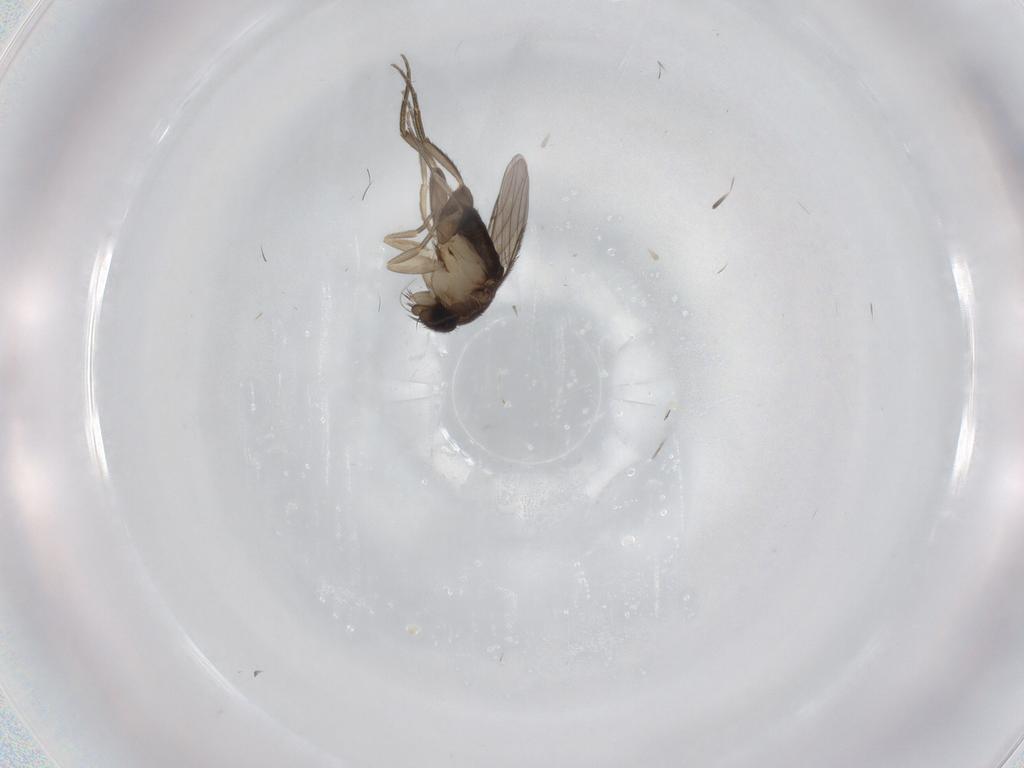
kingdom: Animalia
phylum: Arthropoda
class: Insecta
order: Diptera
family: Phoridae
